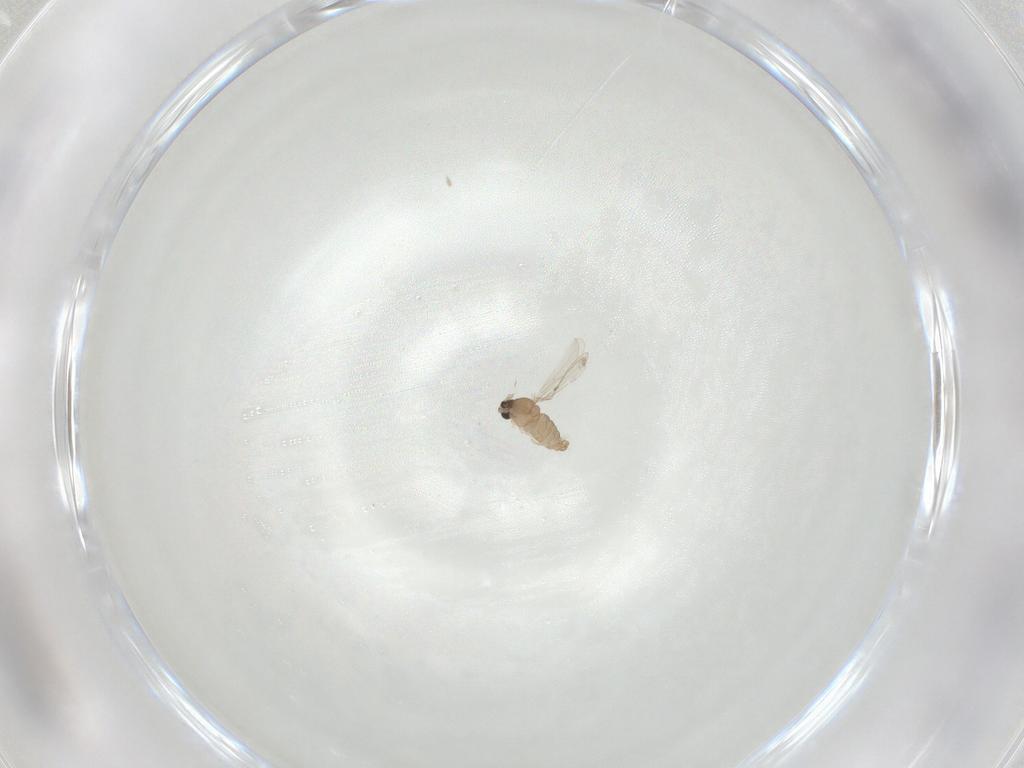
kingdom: Animalia
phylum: Arthropoda
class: Insecta
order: Diptera
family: Cecidomyiidae
